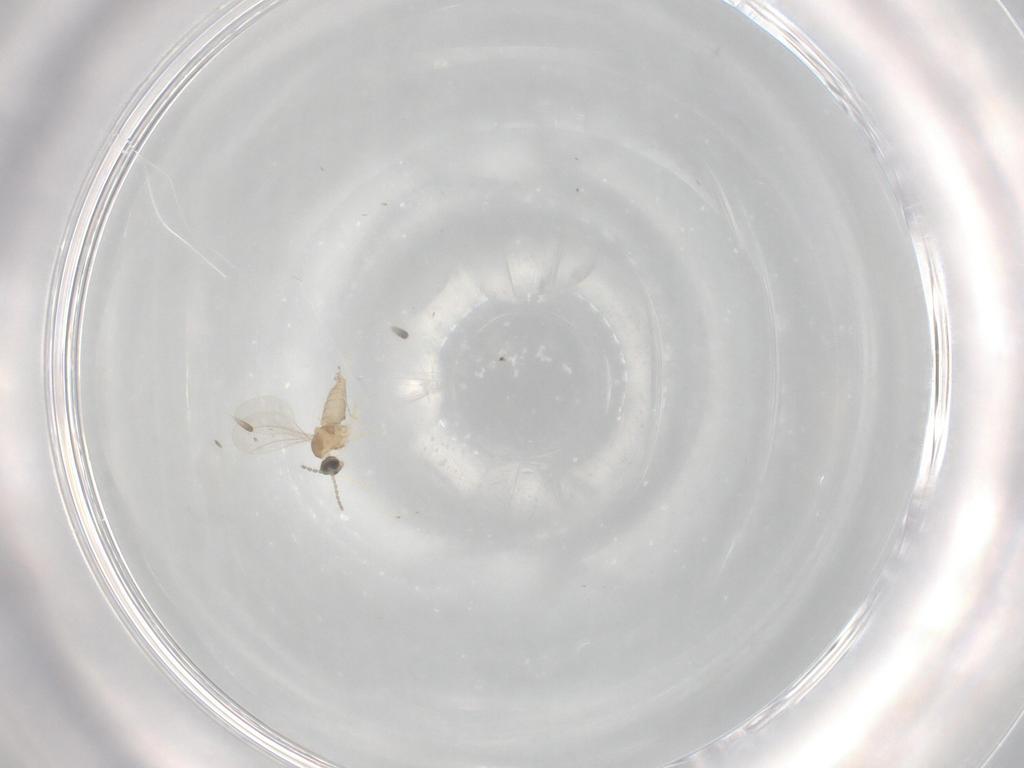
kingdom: Animalia
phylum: Arthropoda
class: Insecta
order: Diptera
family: Cecidomyiidae
